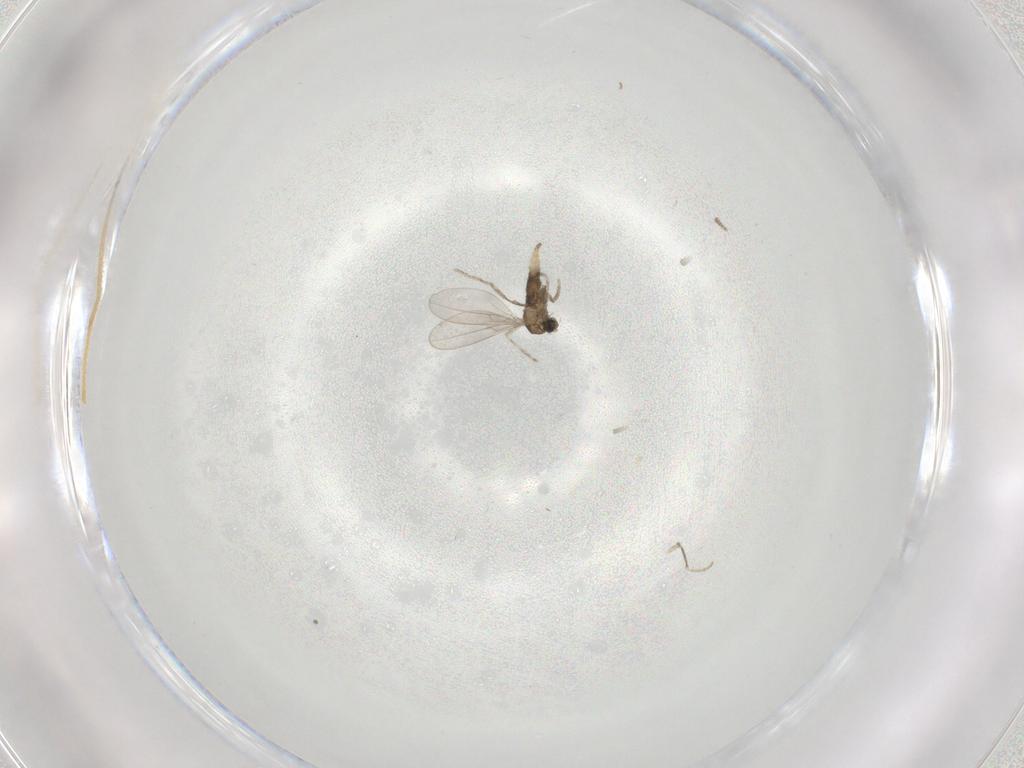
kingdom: Animalia
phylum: Arthropoda
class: Insecta
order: Diptera
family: Cecidomyiidae
